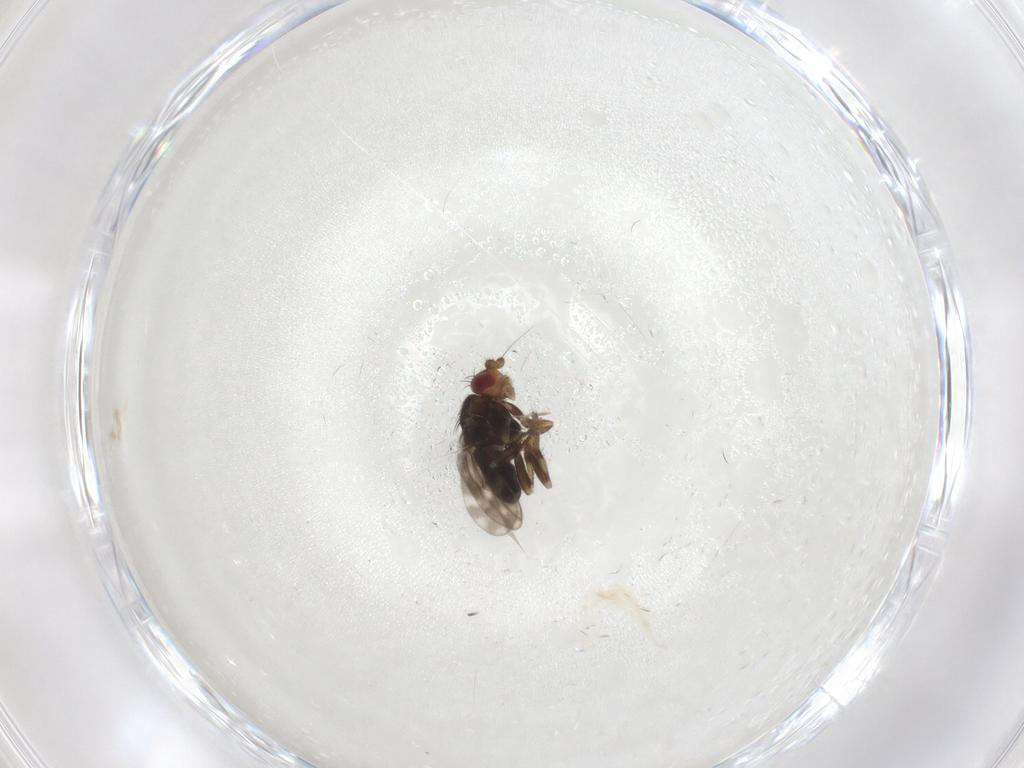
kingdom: Animalia
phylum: Arthropoda
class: Insecta
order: Diptera
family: Sphaeroceridae
